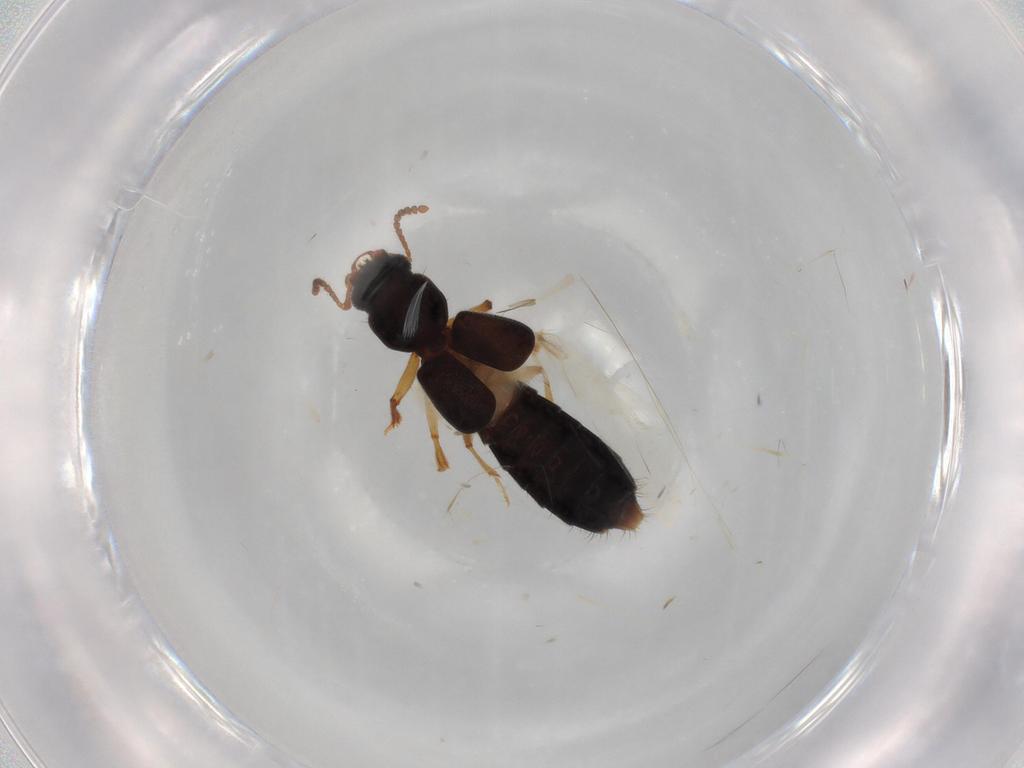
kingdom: Animalia
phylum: Arthropoda
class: Insecta
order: Coleoptera
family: Staphylinidae
